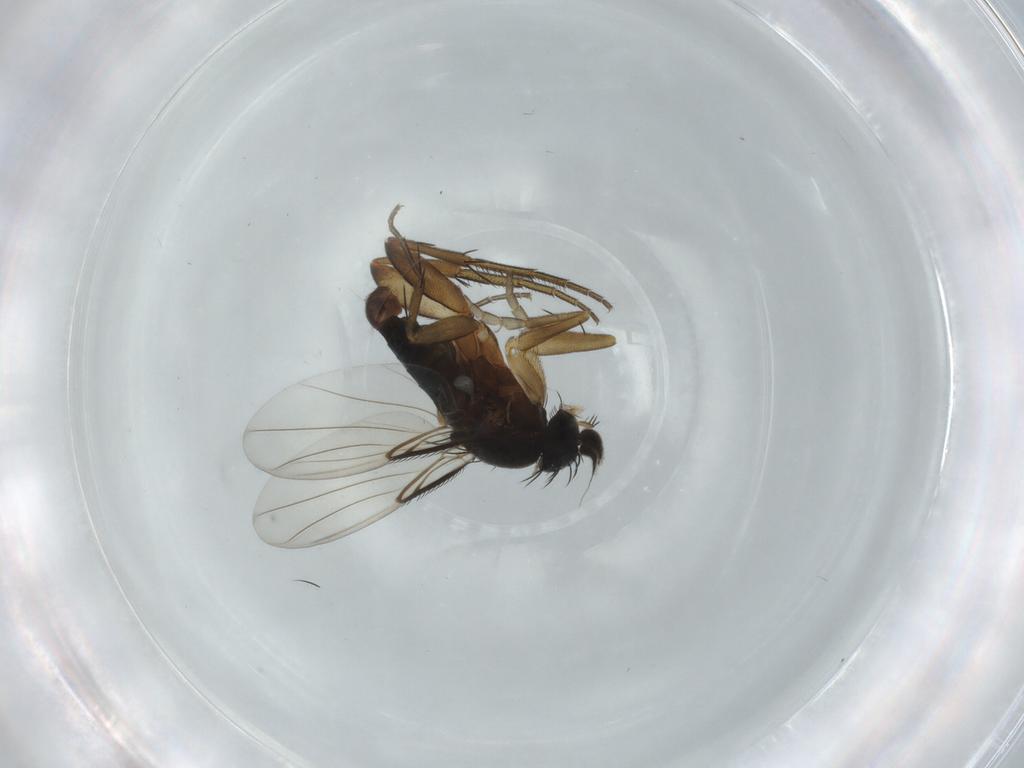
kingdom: Animalia
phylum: Arthropoda
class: Insecta
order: Diptera
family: Phoridae
